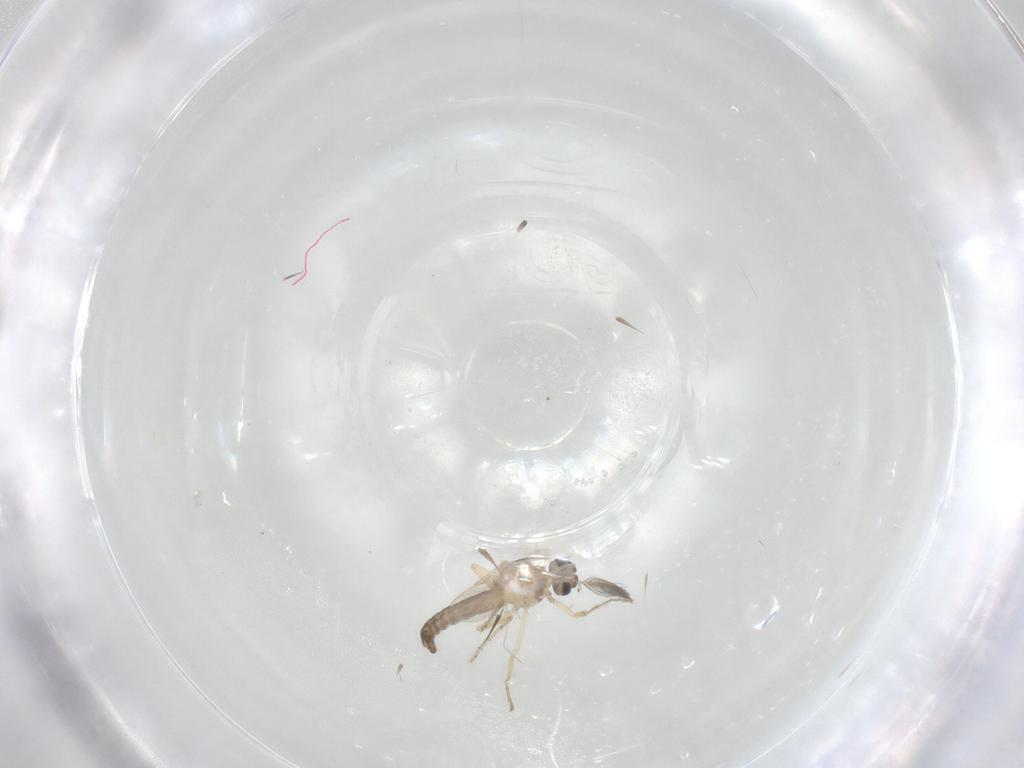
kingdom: Animalia
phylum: Arthropoda
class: Insecta
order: Diptera
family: Ceratopogonidae
